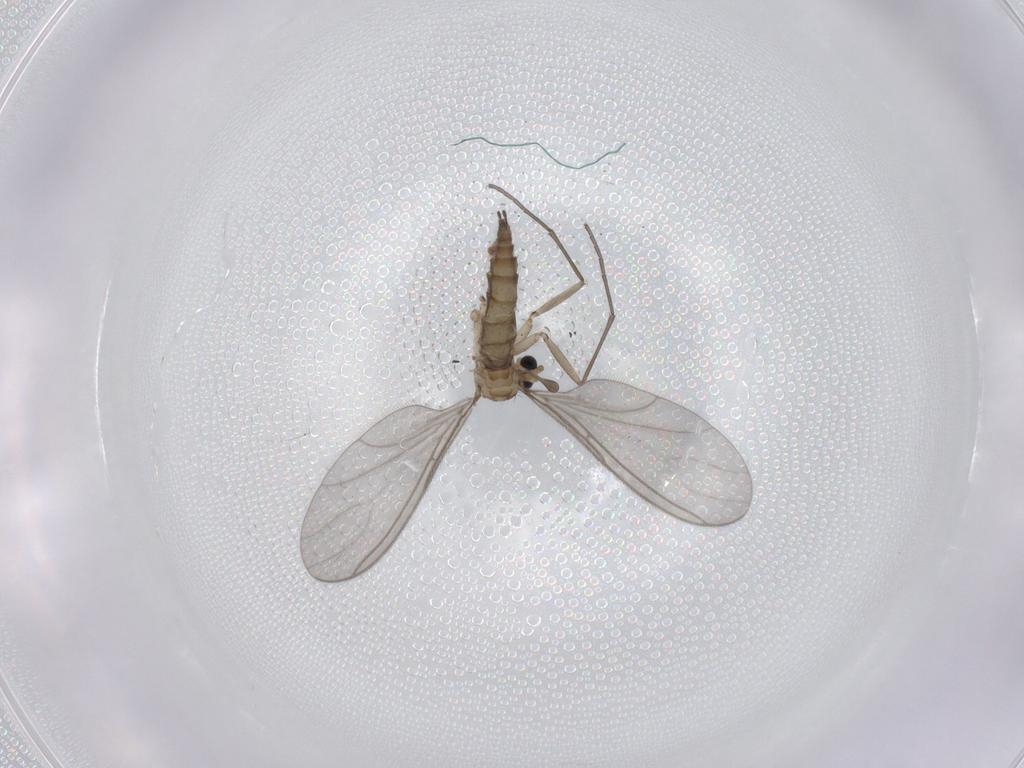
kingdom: Animalia
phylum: Arthropoda
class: Insecta
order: Diptera
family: Sciaridae
